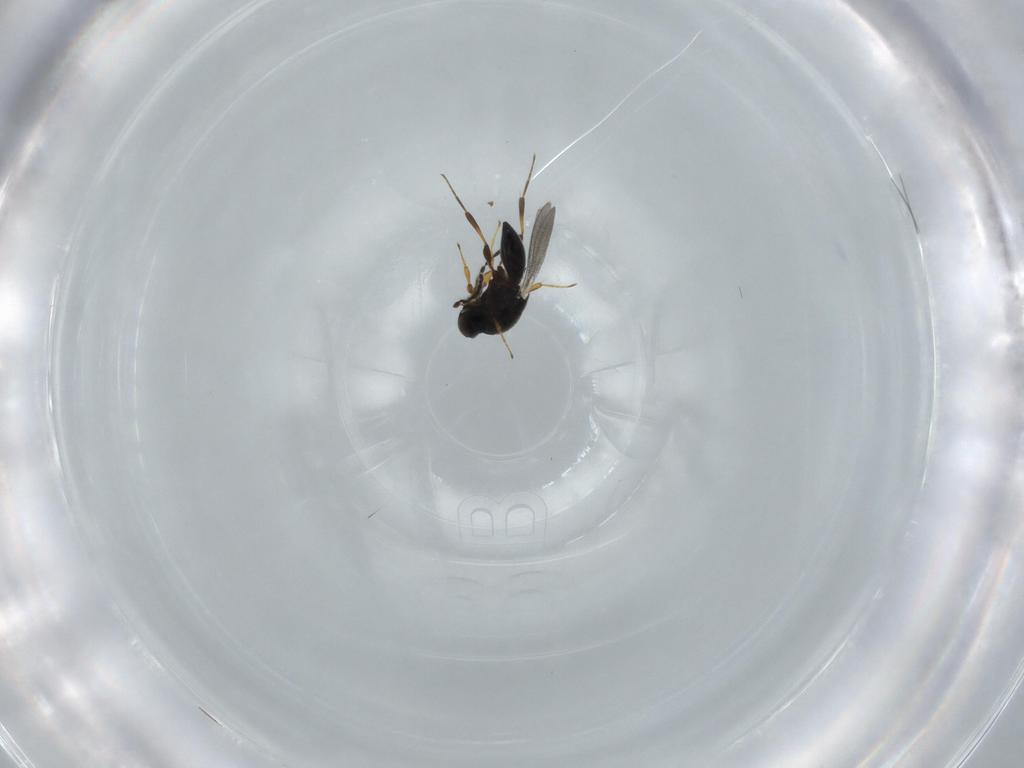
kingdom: Animalia
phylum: Arthropoda
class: Insecta
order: Hymenoptera
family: Platygastridae
